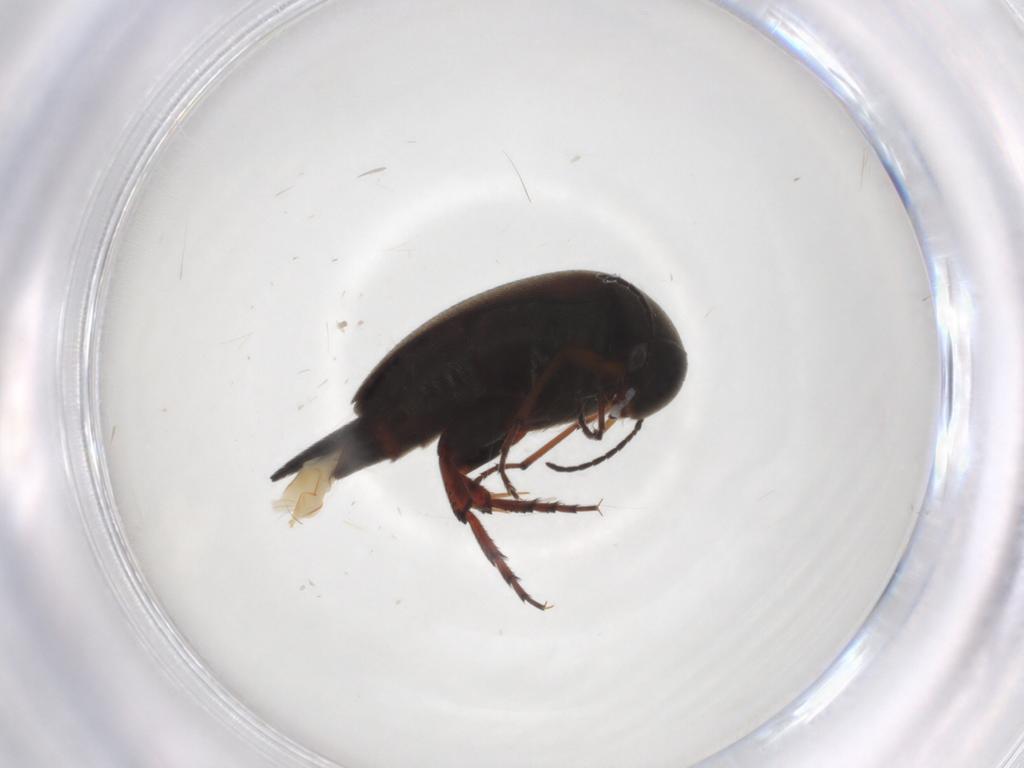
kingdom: Animalia
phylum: Arthropoda
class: Insecta
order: Coleoptera
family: Mordellidae
